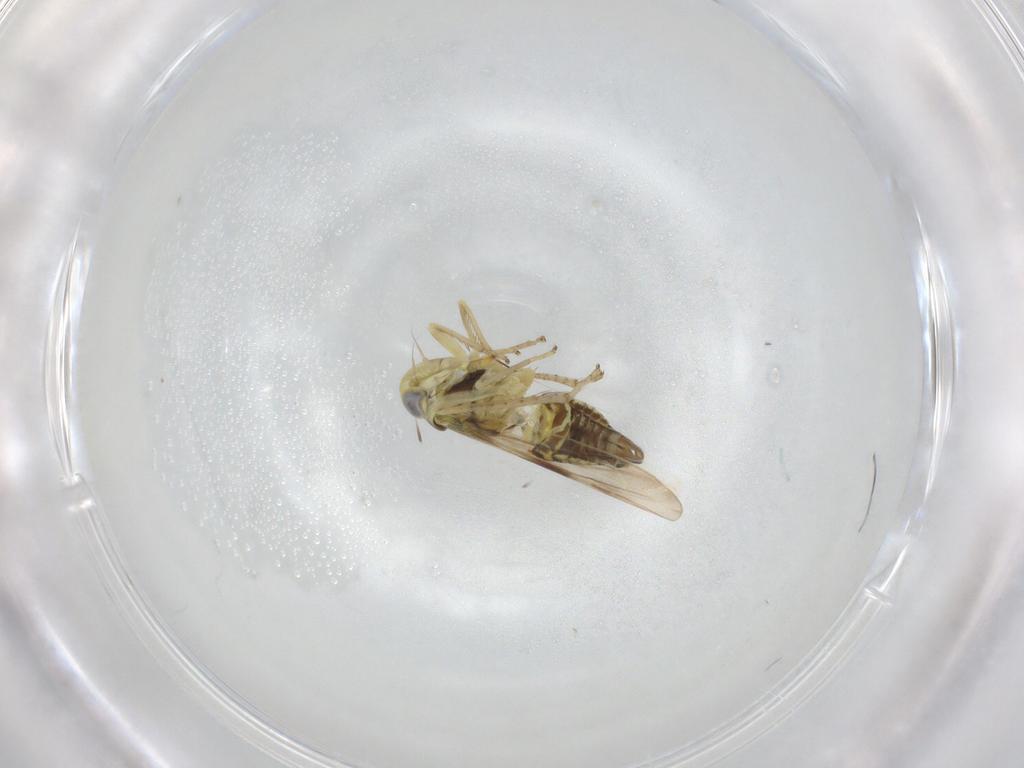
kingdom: Animalia
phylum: Arthropoda
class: Insecta
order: Hemiptera
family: Cicadellidae
